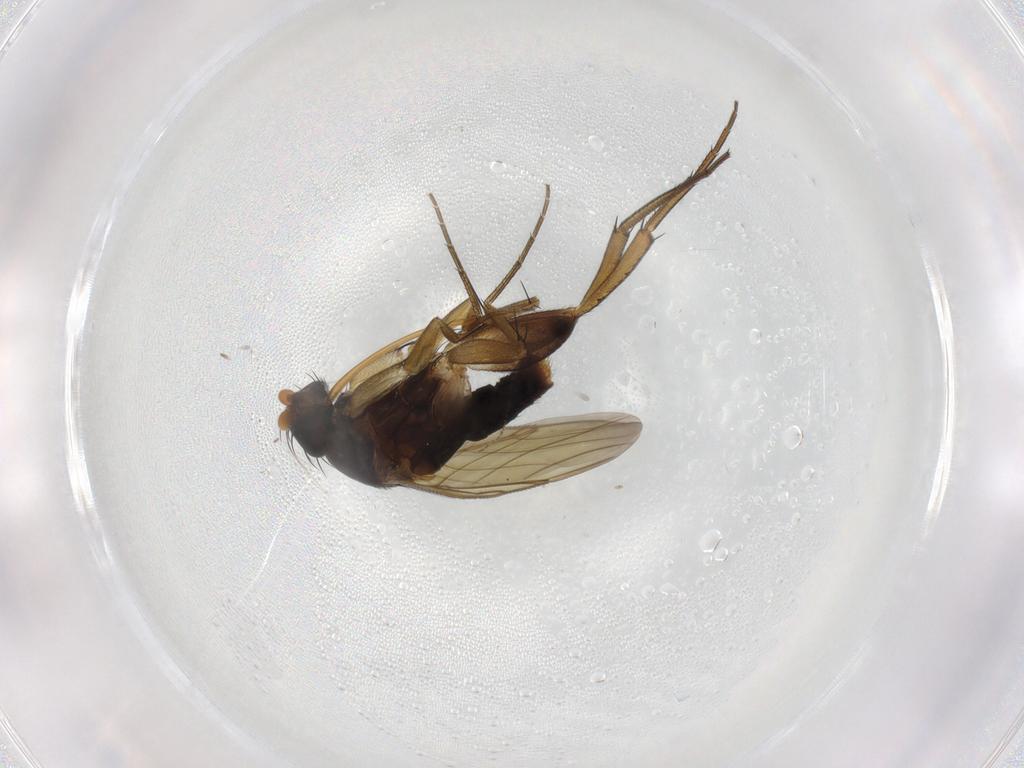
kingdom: Animalia
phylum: Arthropoda
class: Insecta
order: Diptera
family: Phoridae
